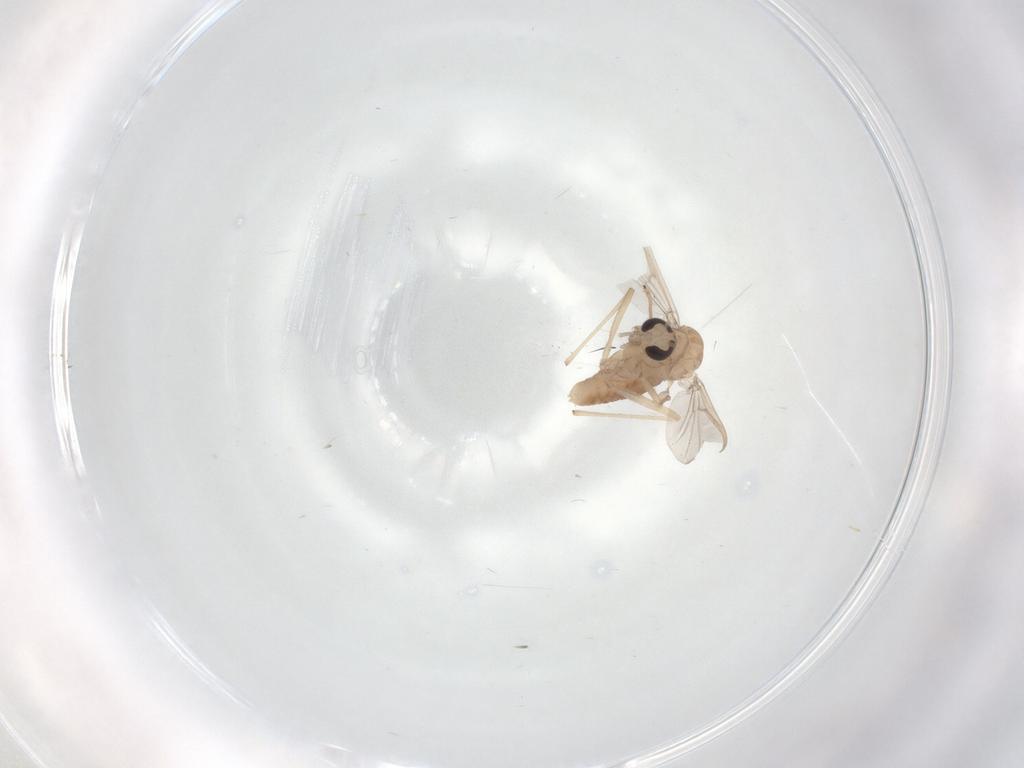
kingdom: Animalia
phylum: Arthropoda
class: Insecta
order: Diptera
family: Chironomidae
